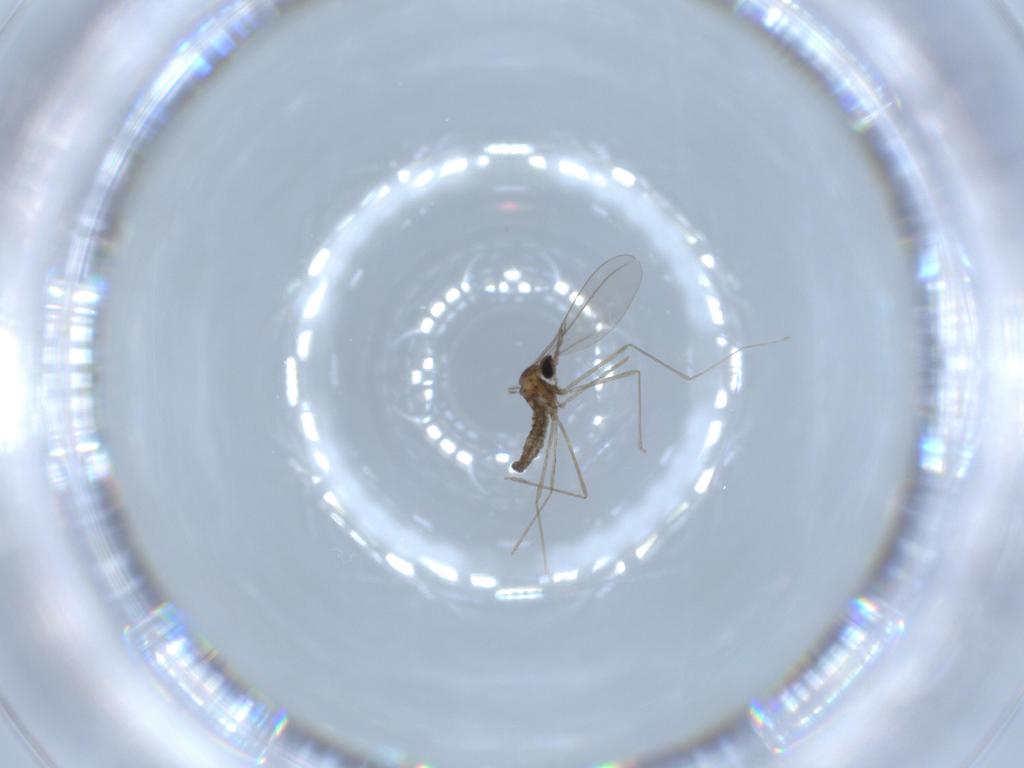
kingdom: Animalia
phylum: Arthropoda
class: Insecta
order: Diptera
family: Cecidomyiidae
